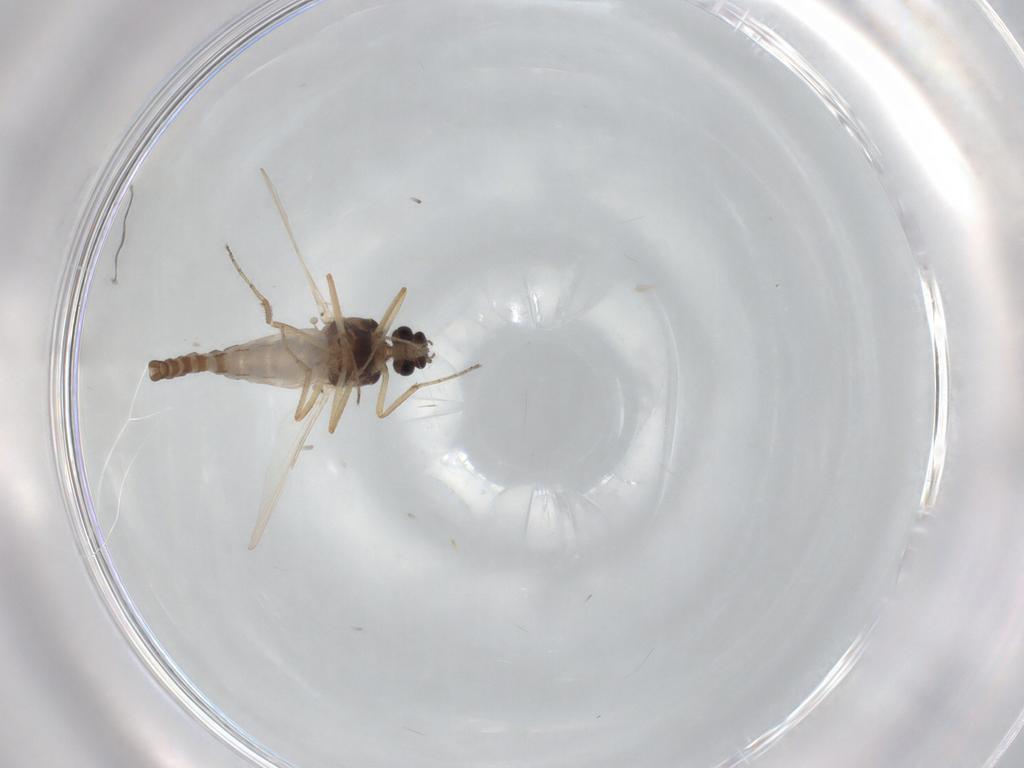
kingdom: Animalia
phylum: Arthropoda
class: Insecta
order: Diptera
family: Ceratopogonidae
